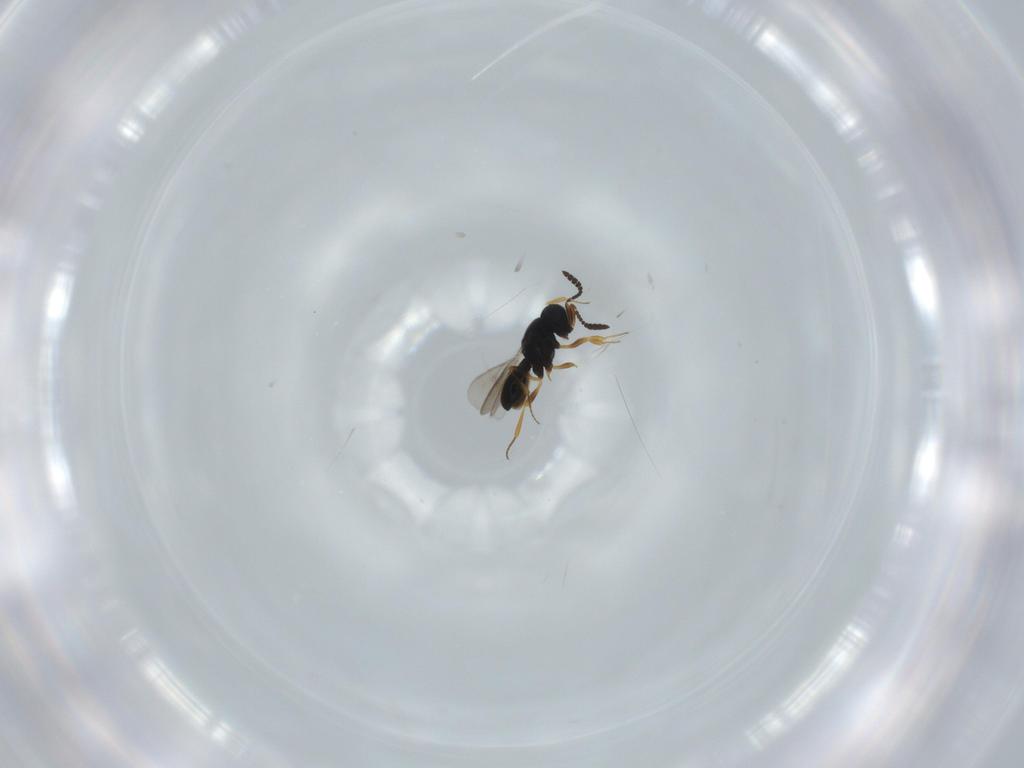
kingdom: Animalia
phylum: Arthropoda
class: Insecta
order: Hymenoptera
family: Scelionidae
